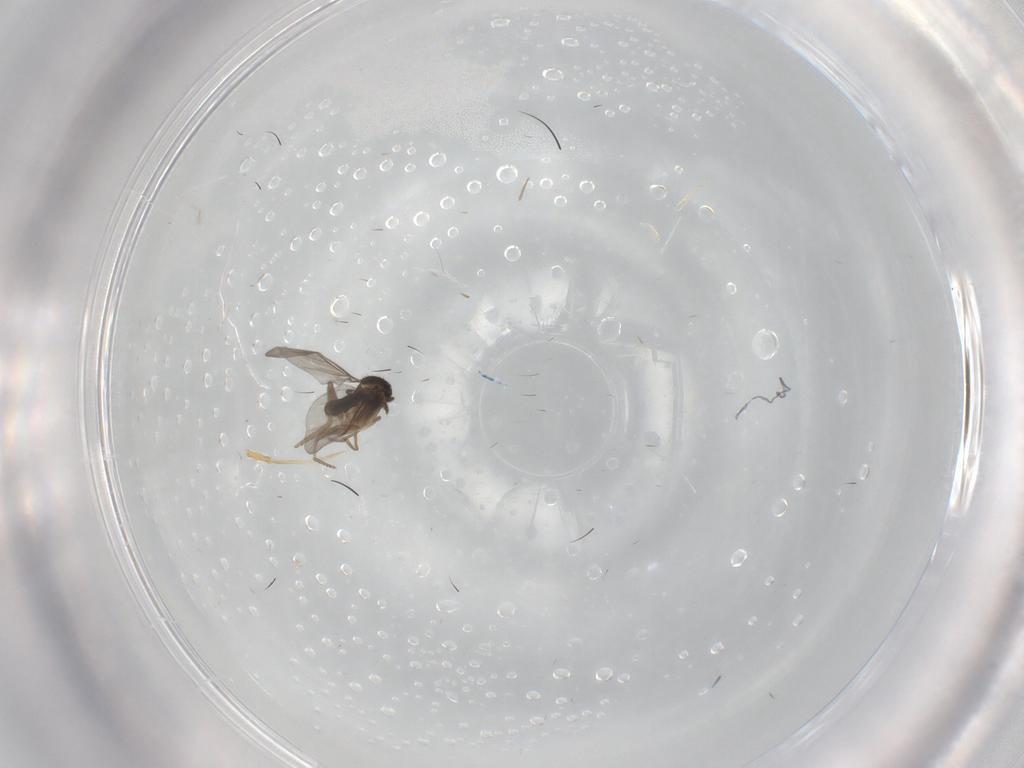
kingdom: Animalia
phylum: Arthropoda
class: Insecta
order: Diptera
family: Phoridae
